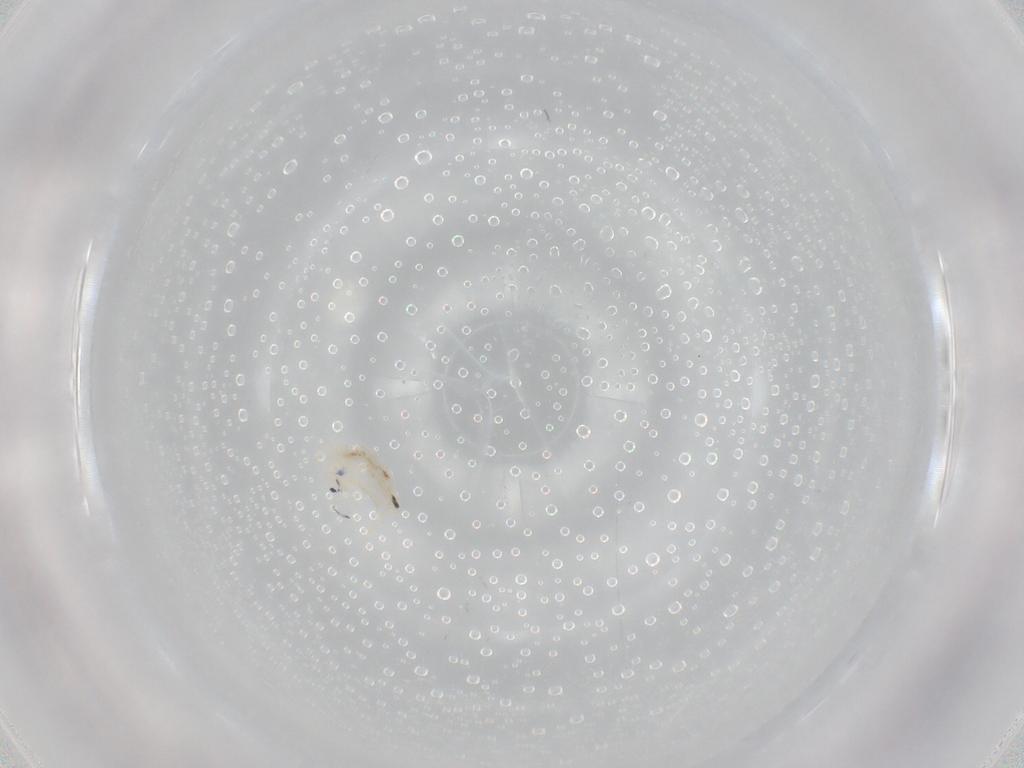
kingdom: Animalia
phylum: Arthropoda
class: Collembola
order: Entomobryomorpha
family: Entomobryidae
